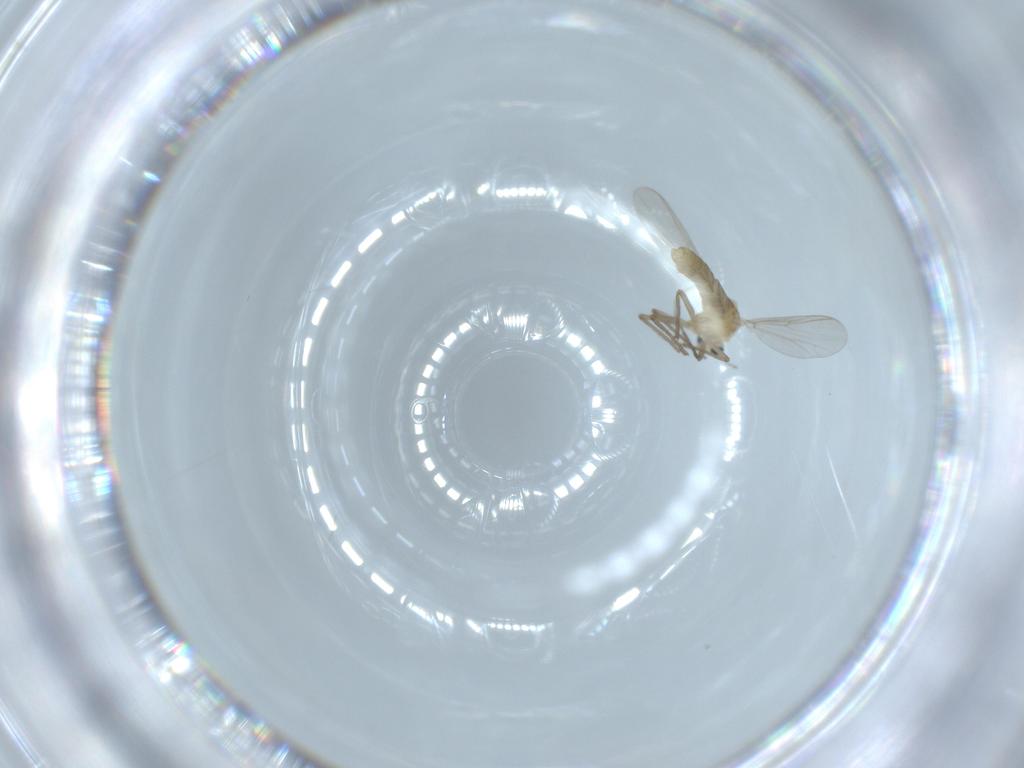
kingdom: Animalia
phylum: Arthropoda
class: Insecta
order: Diptera
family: Chironomidae
